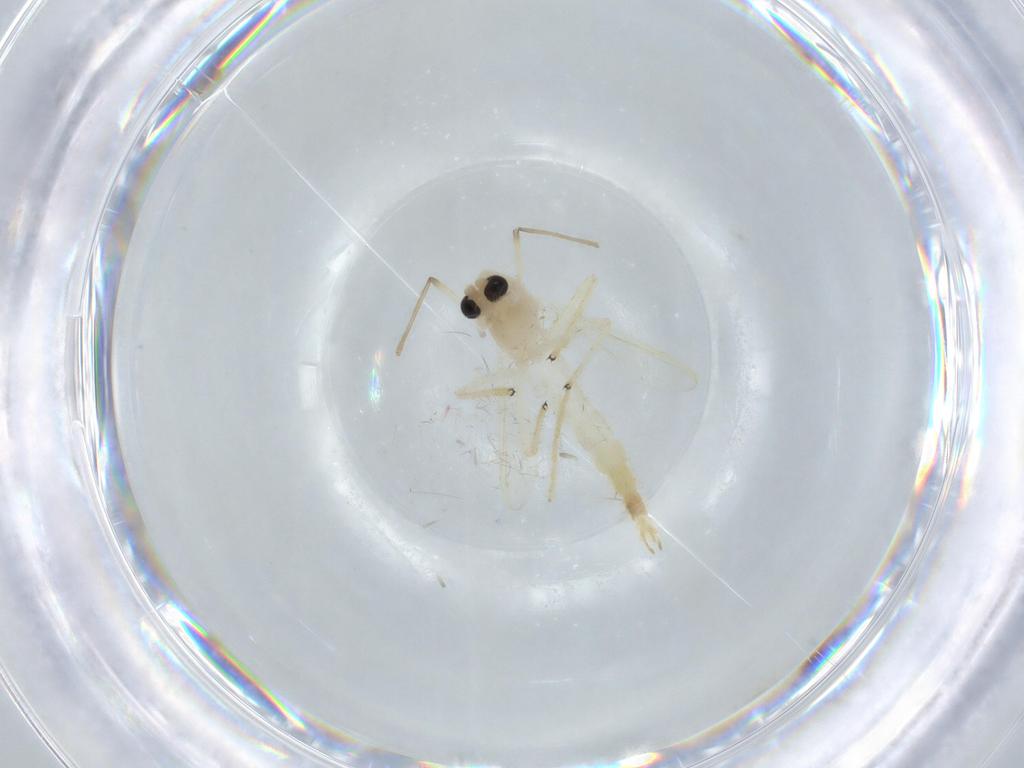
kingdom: Animalia
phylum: Arthropoda
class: Insecta
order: Diptera
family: Chironomidae
